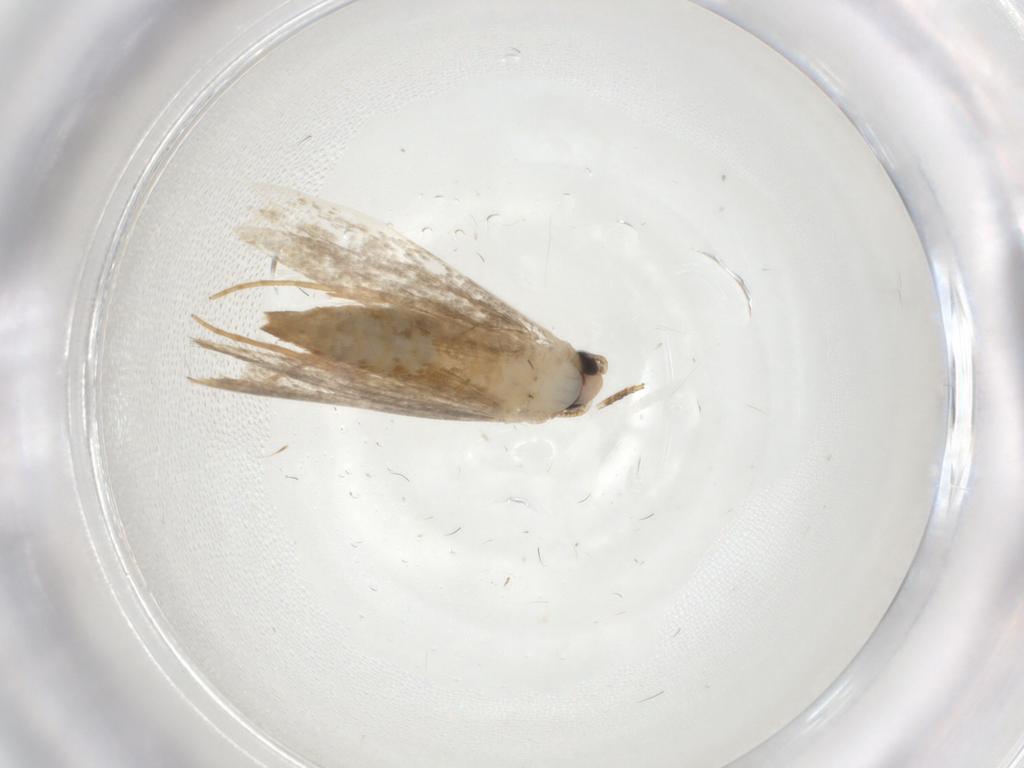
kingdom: Animalia
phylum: Arthropoda
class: Insecta
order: Lepidoptera
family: Tineidae
